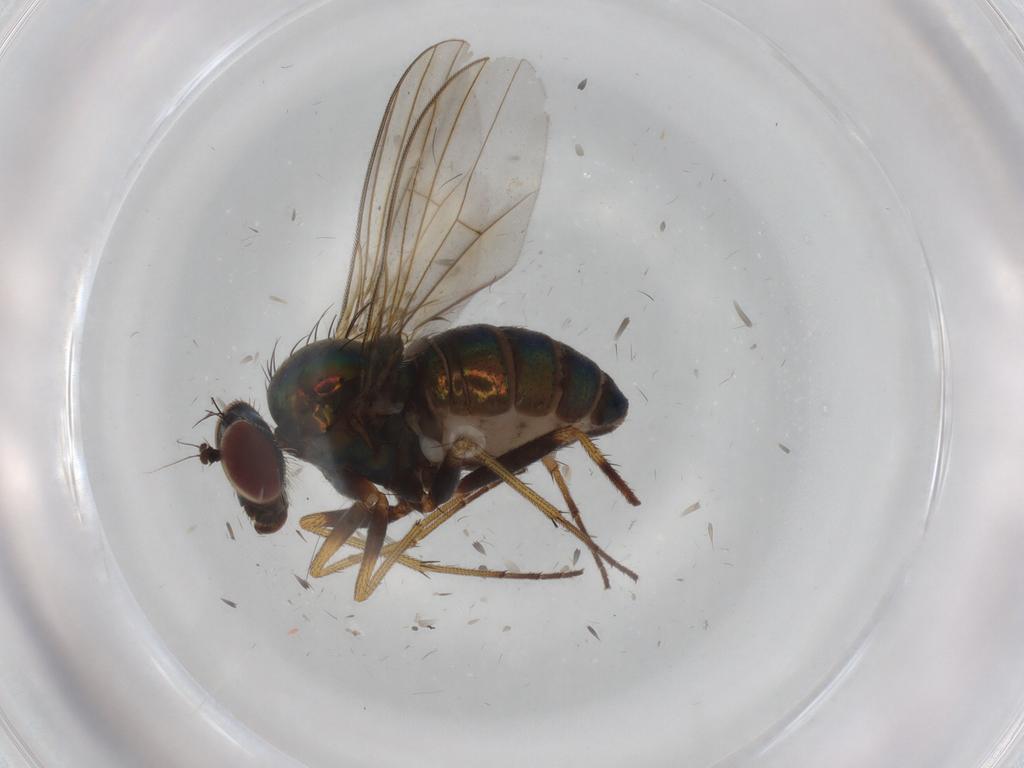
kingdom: Animalia
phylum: Arthropoda
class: Insecta
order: Diptera
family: Dolichopodidae
